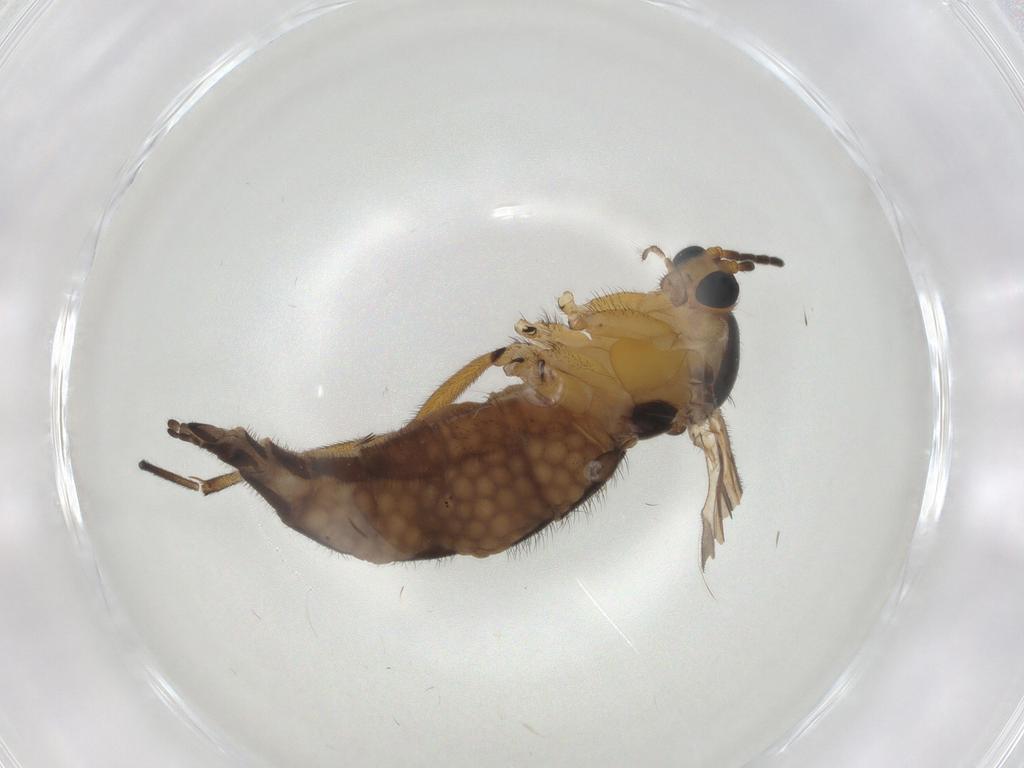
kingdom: Animalia
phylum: Arthropoda
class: Insecta
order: Diptera
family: Sciaridae
